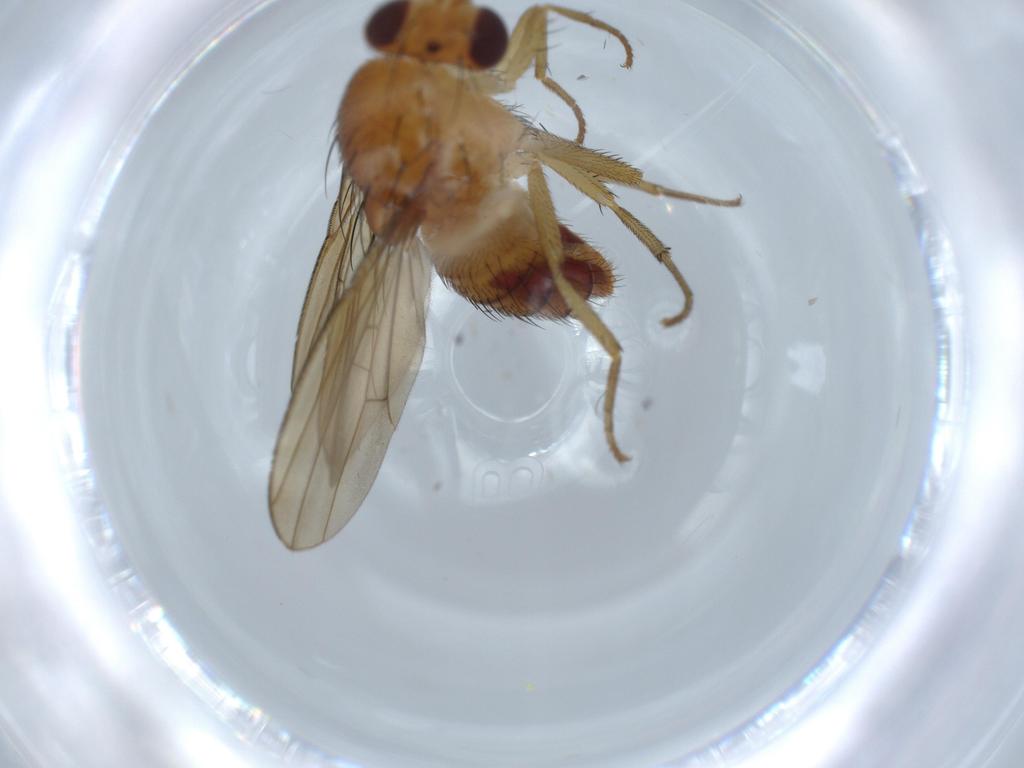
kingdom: Animalia
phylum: Arthropoda
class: Insecta
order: Diptera
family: Lauxaniidae
